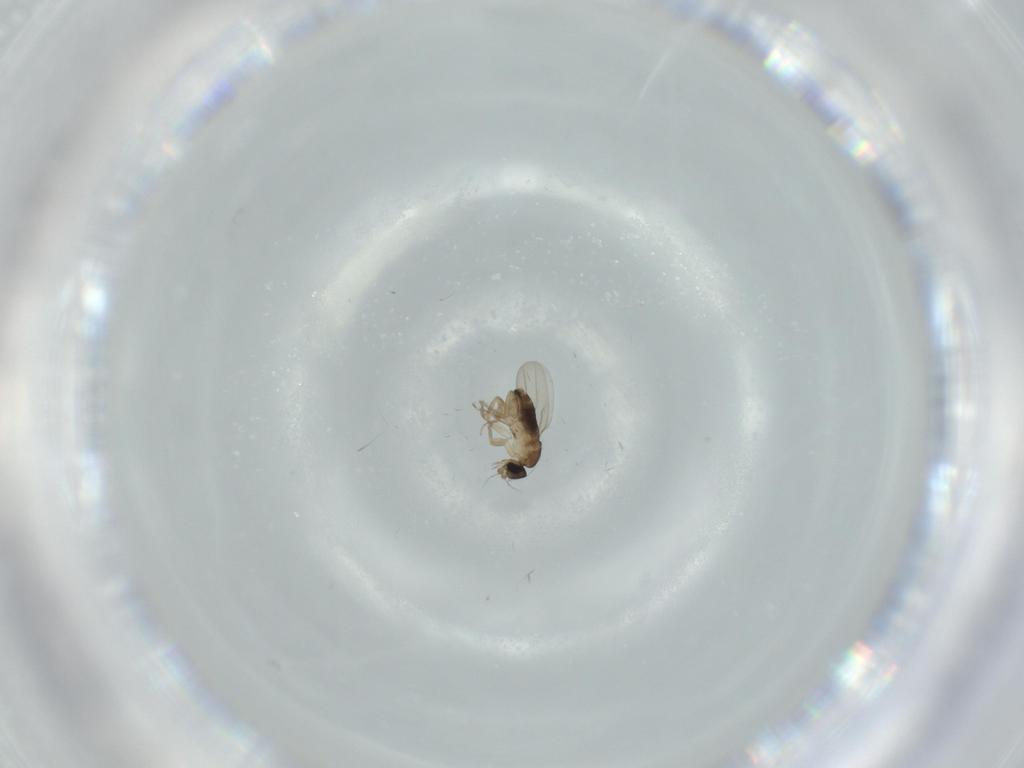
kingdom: Animalia
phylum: Arthropoda
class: Insecta
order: Diptera
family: Phoridae
